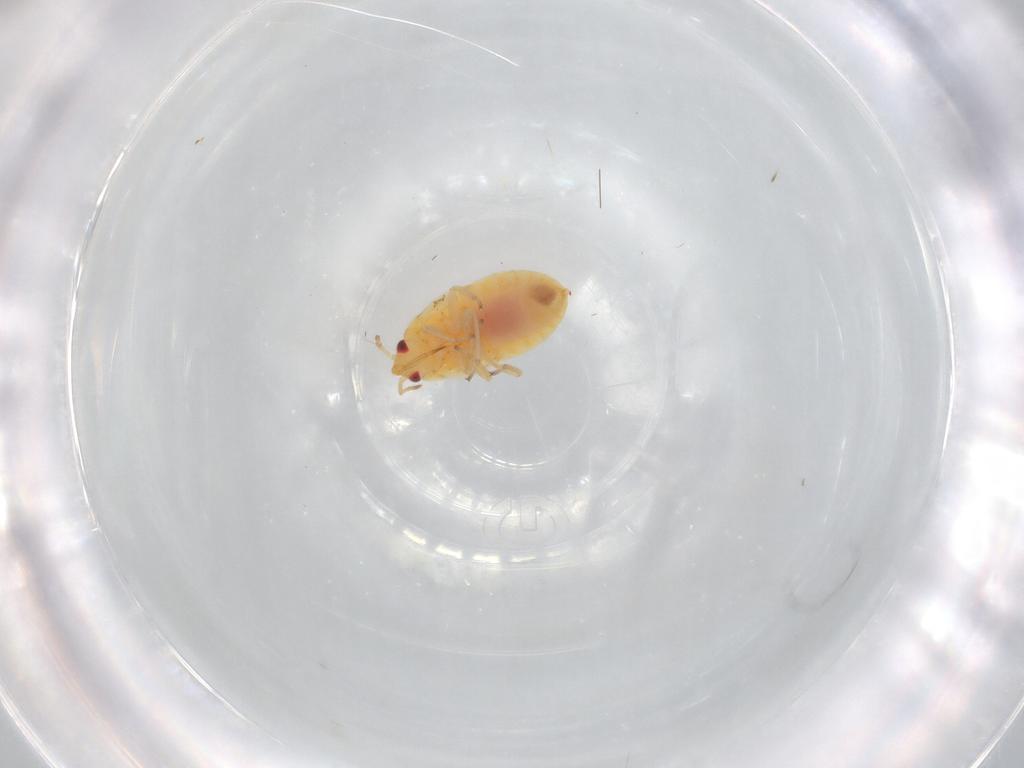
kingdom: Animalia
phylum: Arthropoda
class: Insecta
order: Hemiptera
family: Anthocoridae
